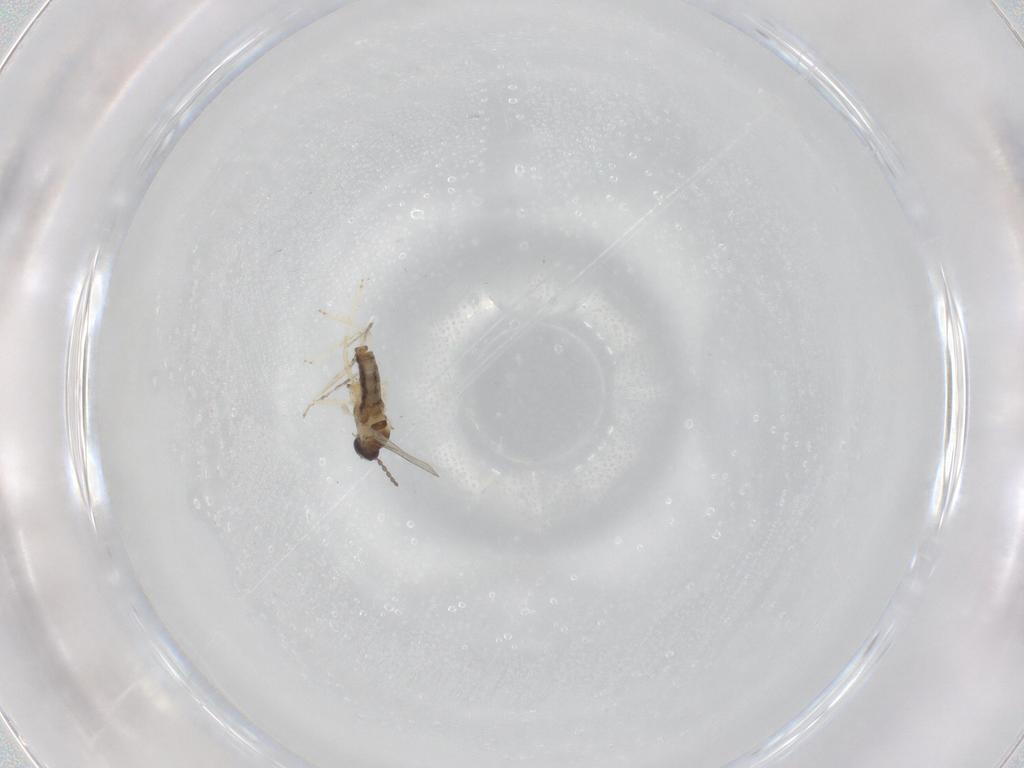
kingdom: Animalia
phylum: Arthropoda
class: Insecta
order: Diptera
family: Cecidomyiidae
